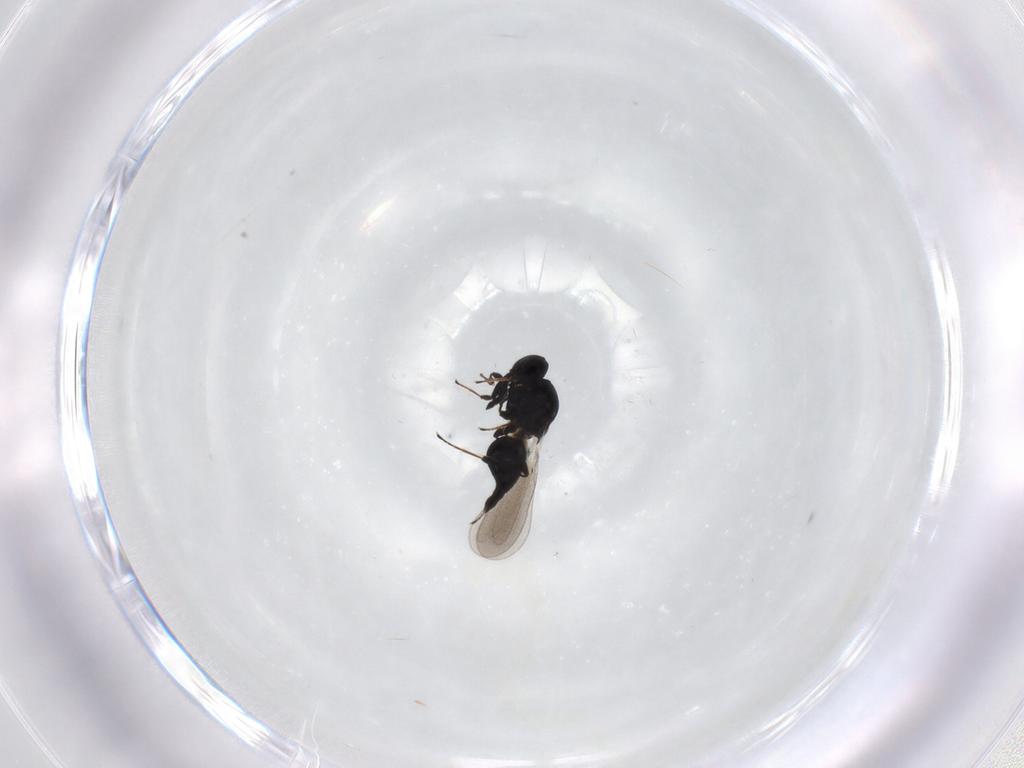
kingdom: Animalia
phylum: Arthropoda
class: Insecta
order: Hymenoptera
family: Platygastridae
